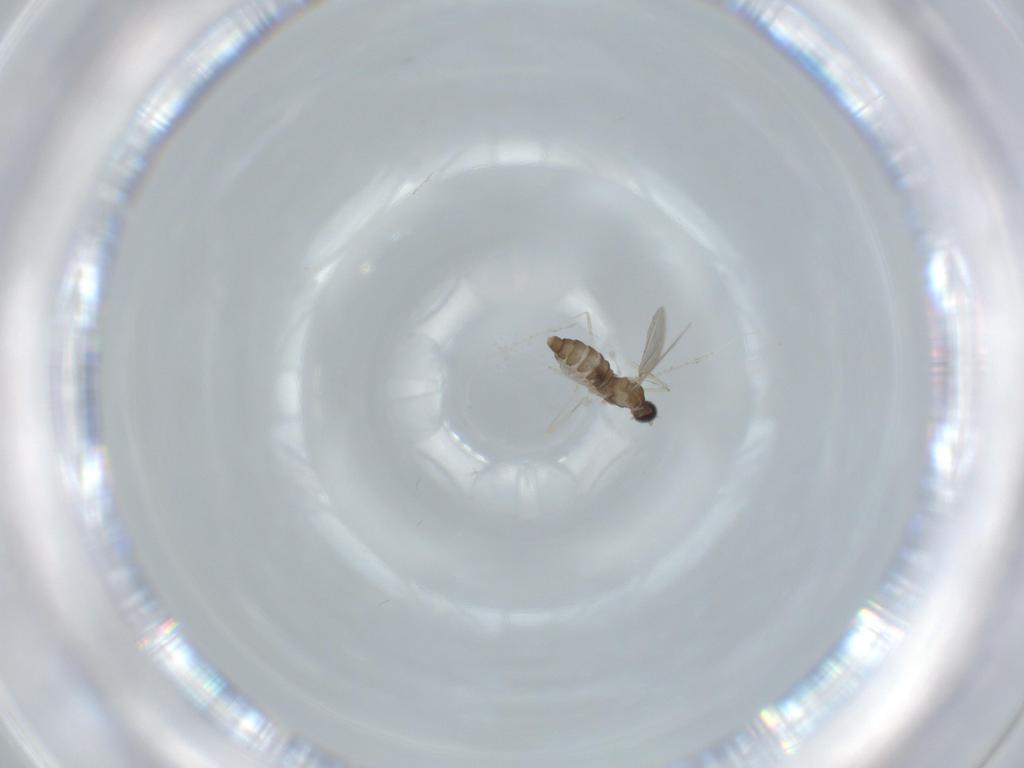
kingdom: Animalia
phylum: Arthropoda
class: Insecta
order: Diptera
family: Cecidomyiidae
